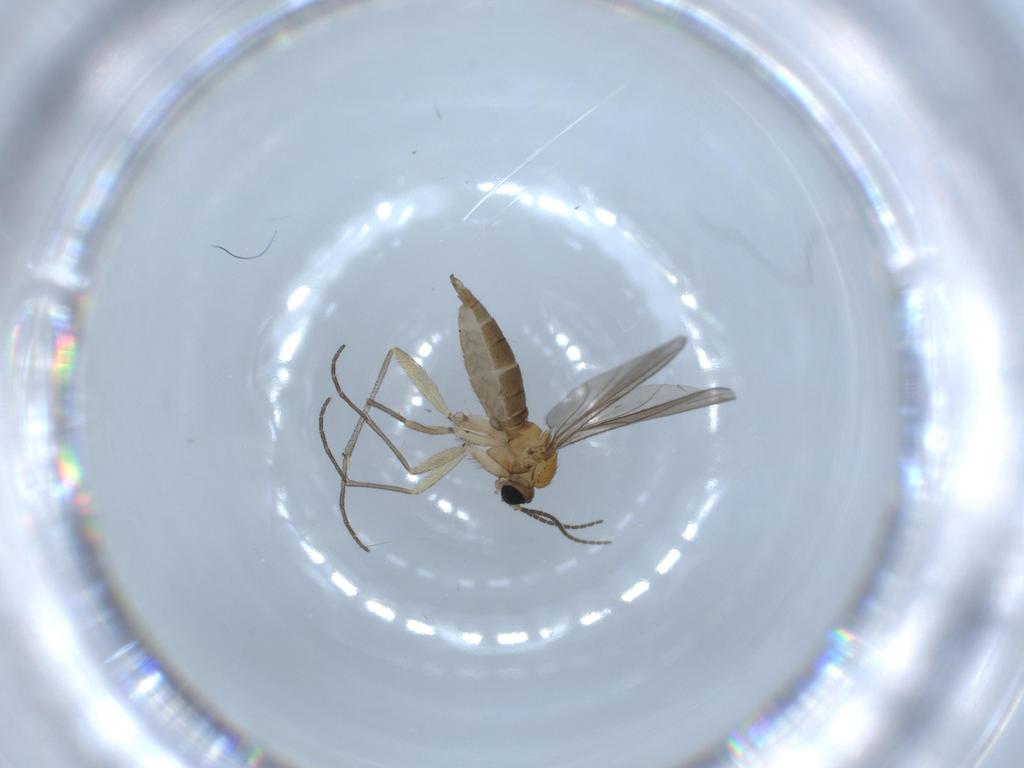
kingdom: Animalia
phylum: Arthropoda
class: Insecta
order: Diptera
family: Sciaridae
